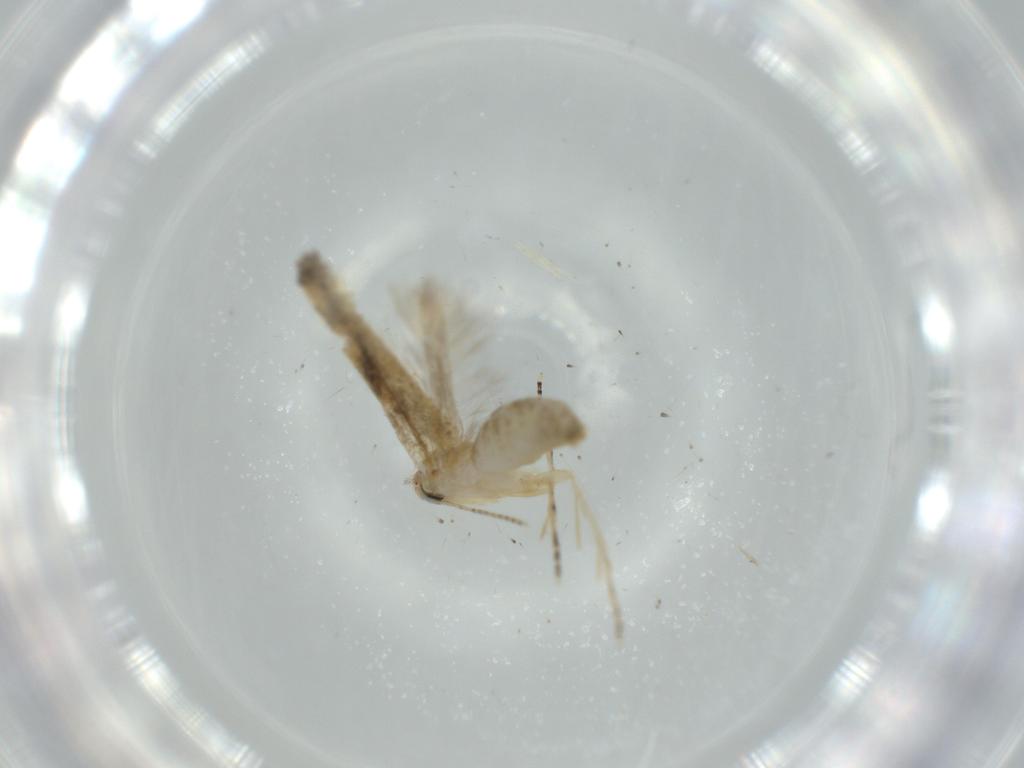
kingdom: Animalia
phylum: Arthropoda
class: Insecta
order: Lepidoptera
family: Bucculatricidae
